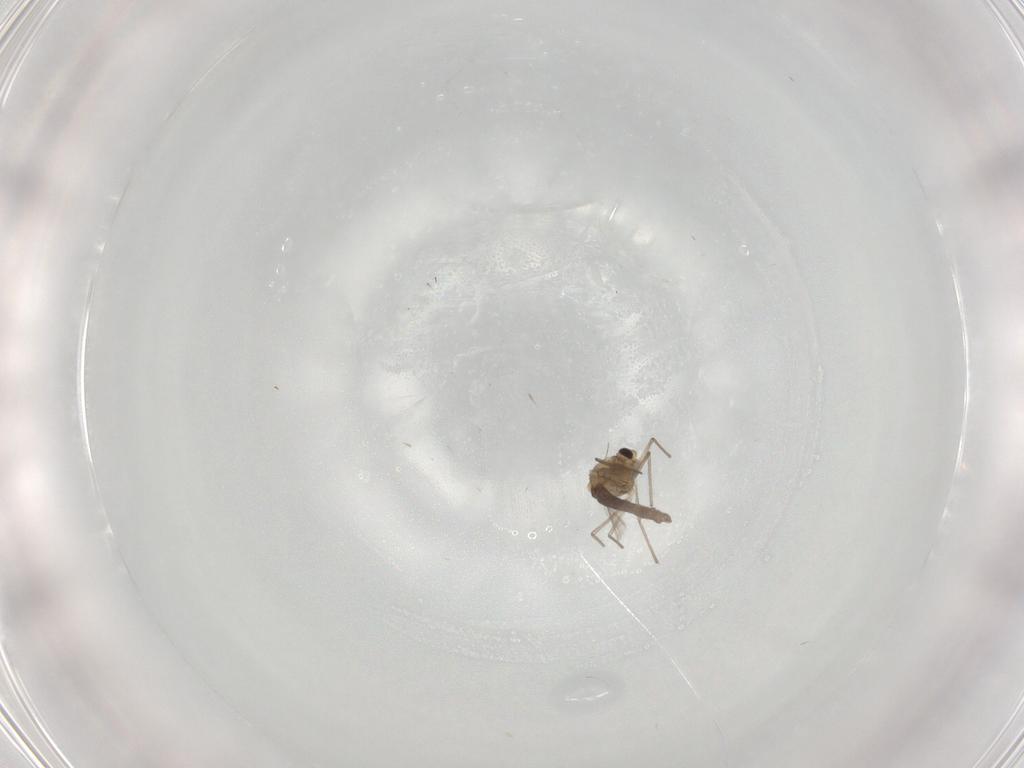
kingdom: Animalia
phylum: Arthropoda
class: Insecta
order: Diptera
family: Chironomidae
